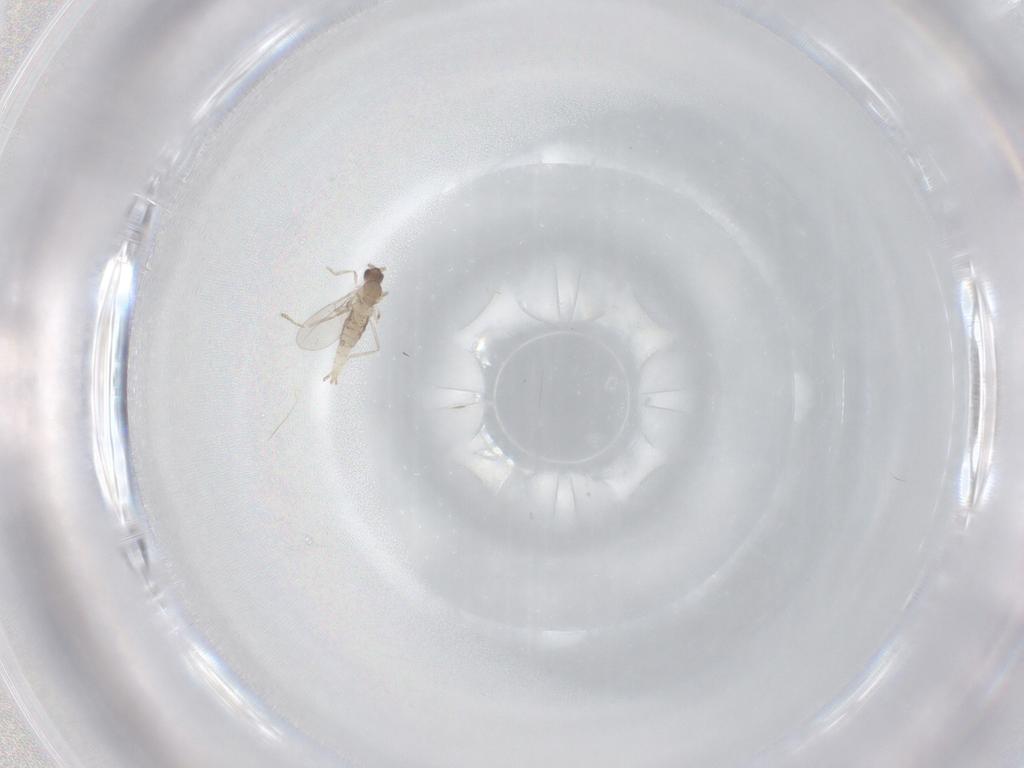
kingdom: Animalia
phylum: Arthropoda
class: Insecta
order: Diptera
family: Cecidomyiidae
